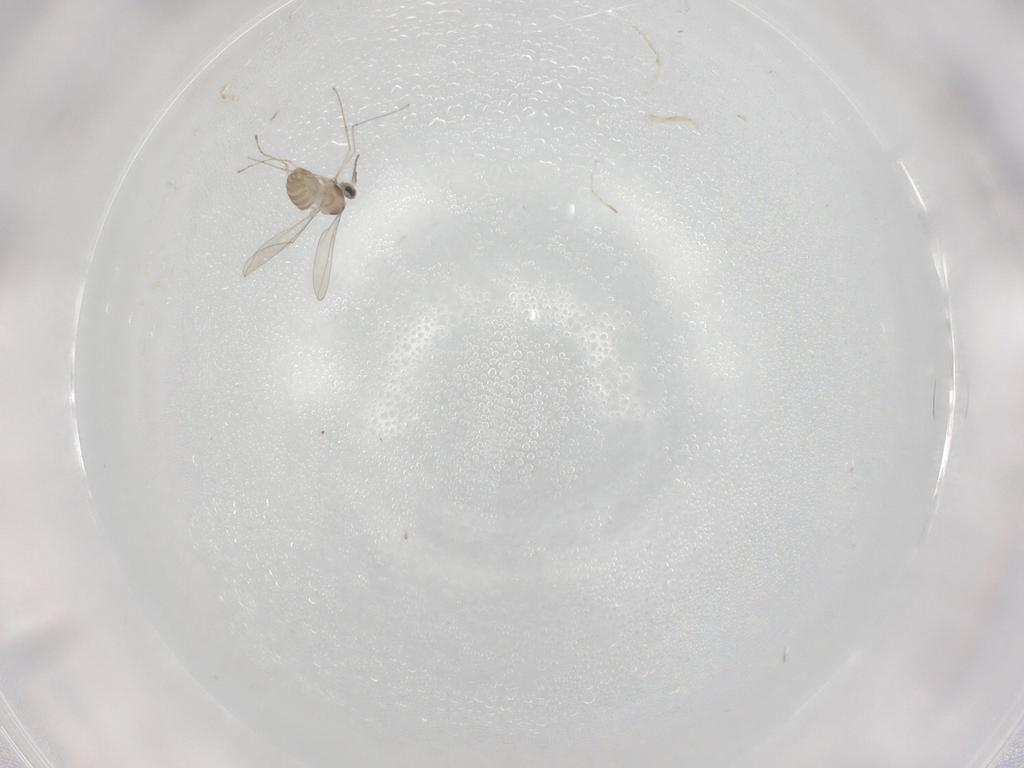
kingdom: Animalia
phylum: Arthropoda
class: Insecta
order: Diptera
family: Cecidomyiidae
